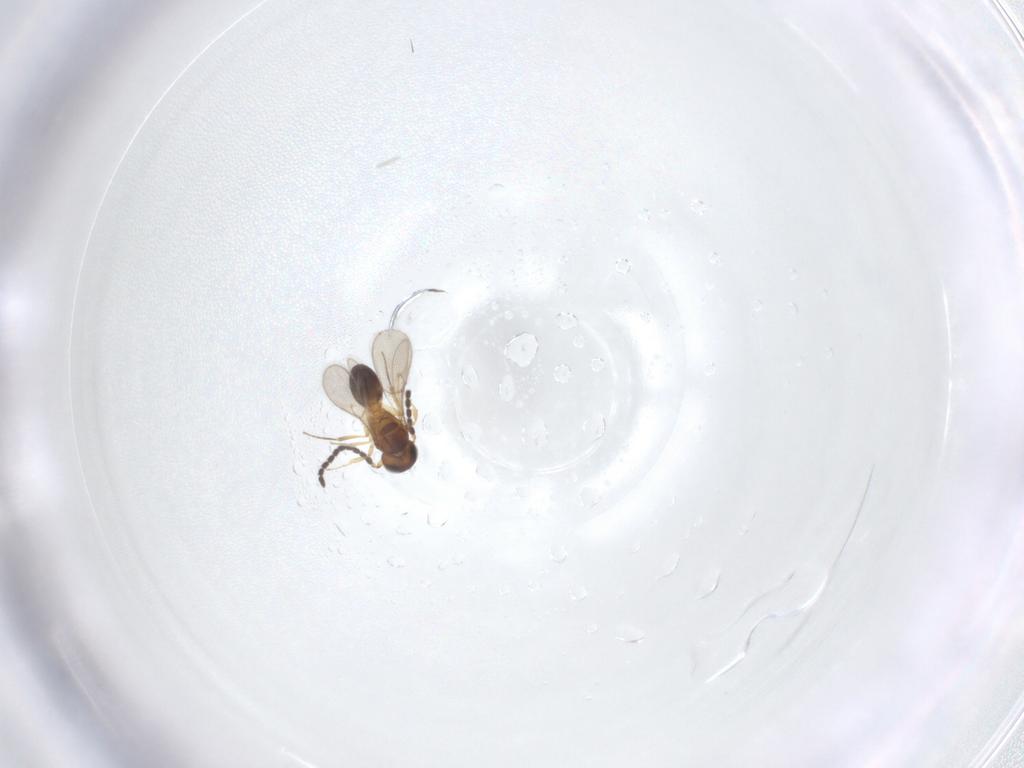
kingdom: Animalia
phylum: Arthropoda
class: Insecta
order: Hymenoptera
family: Scelionidae
